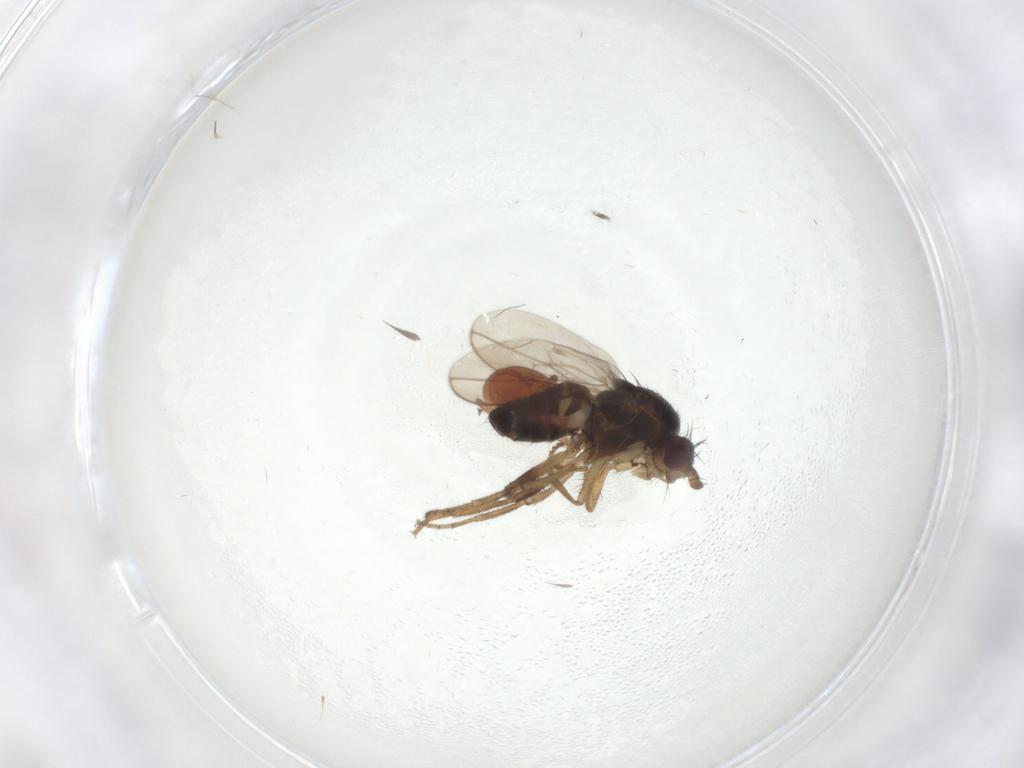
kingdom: Animalia
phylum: Arthropoda
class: Insecta
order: Diptera
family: Sphaeroceridae
